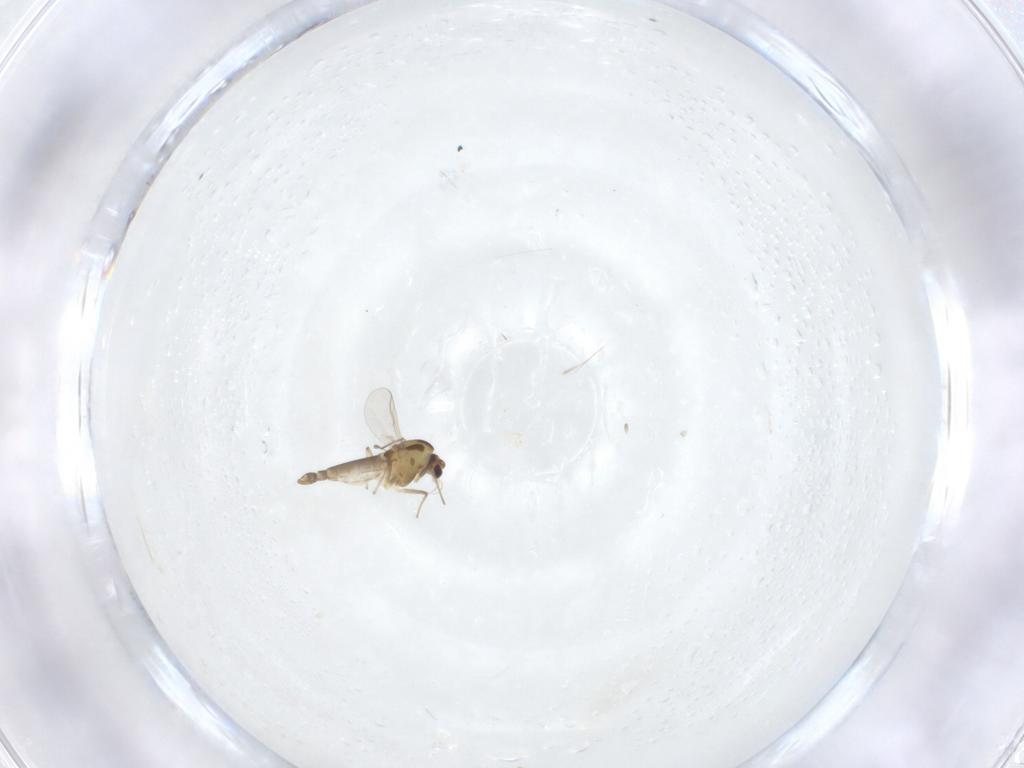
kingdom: Animalia
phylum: Arthropoda
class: Insecta
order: Diptera
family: Chironomidae
